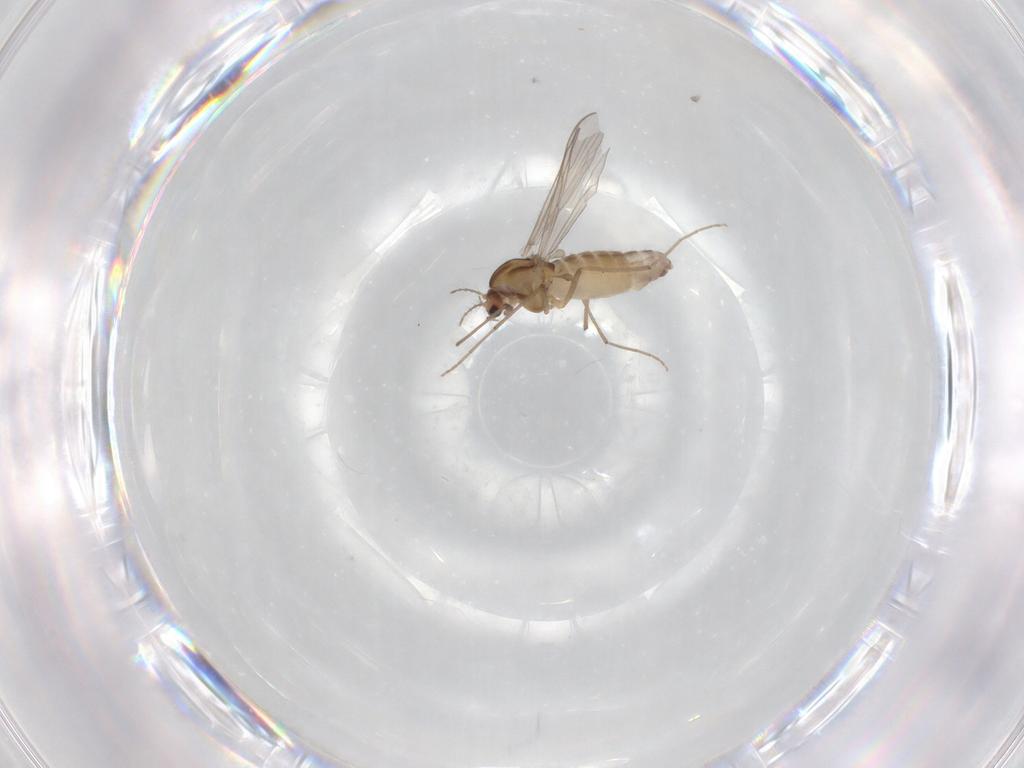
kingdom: Animalia
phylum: Arthropoda
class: Insecta
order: Diptera
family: Chironomidae
